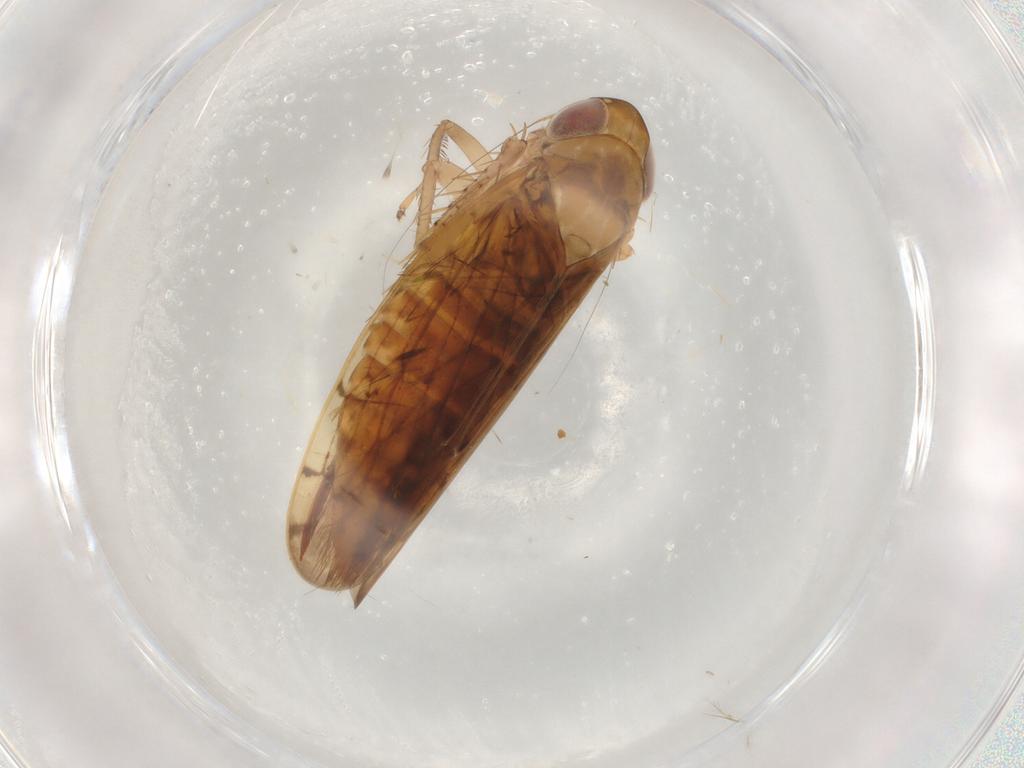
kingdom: Animalia
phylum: Arthropoda
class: Insecta
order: Hemiptera
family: Cicadellidae
